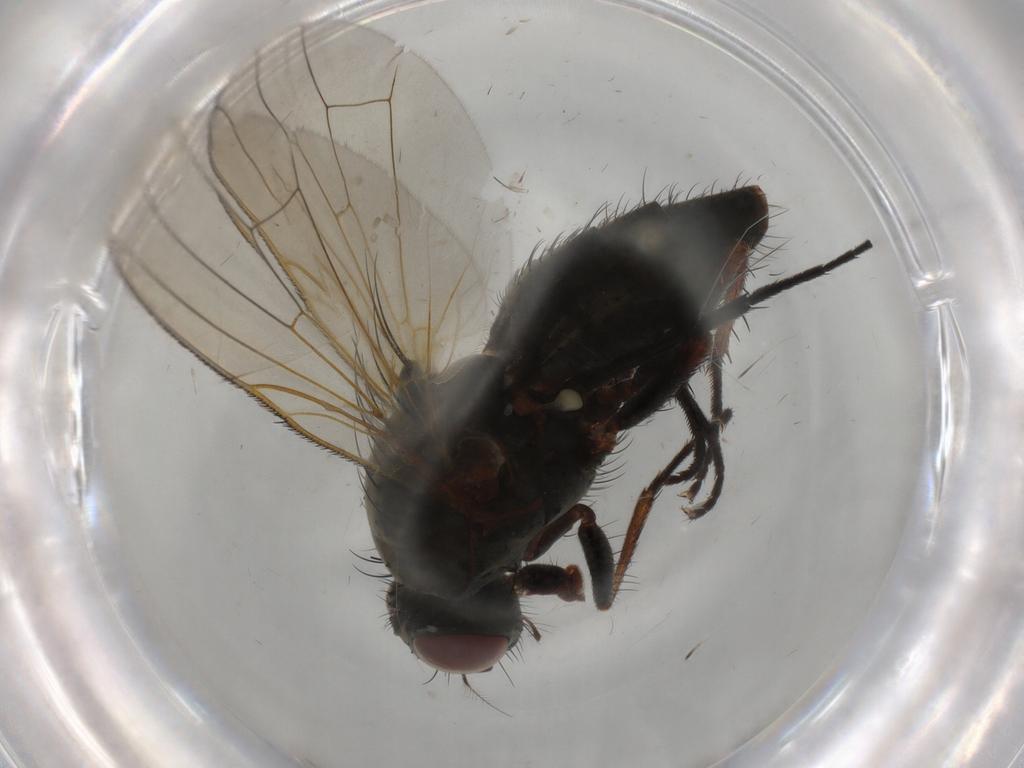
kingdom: Animalia
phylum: Arthropoda
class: Insecta
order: Diptera
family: Anthomyiidae
